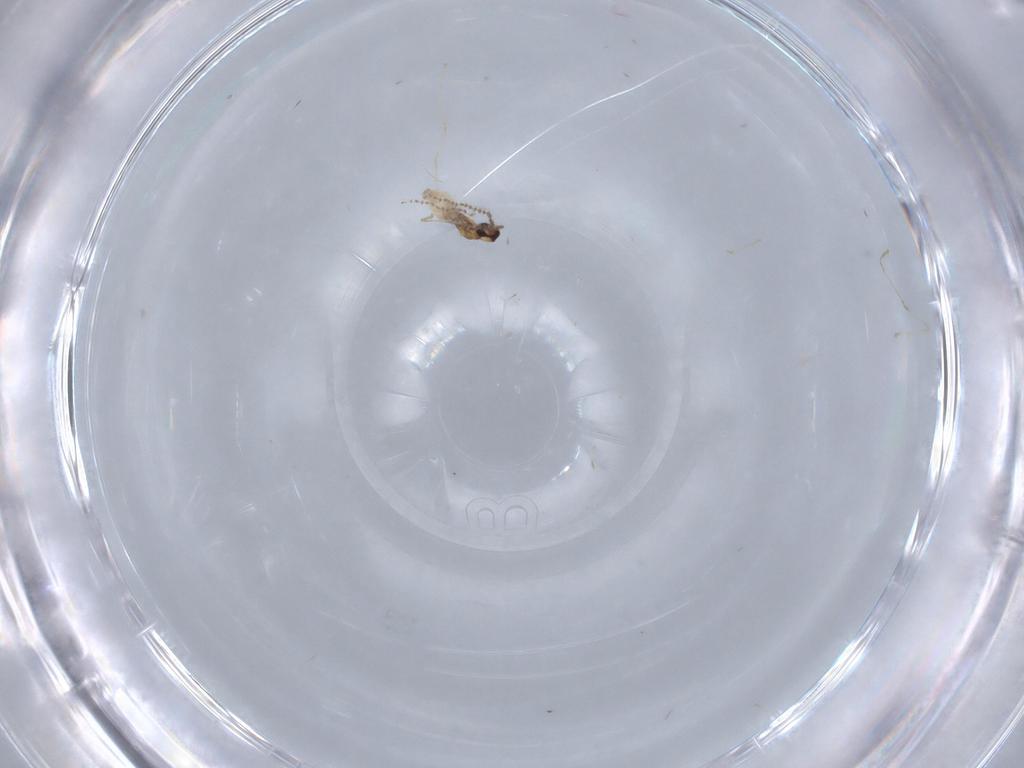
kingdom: Animalia
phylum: Arthropoda
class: Insecta
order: Diptera
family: Cecidomyiidae
